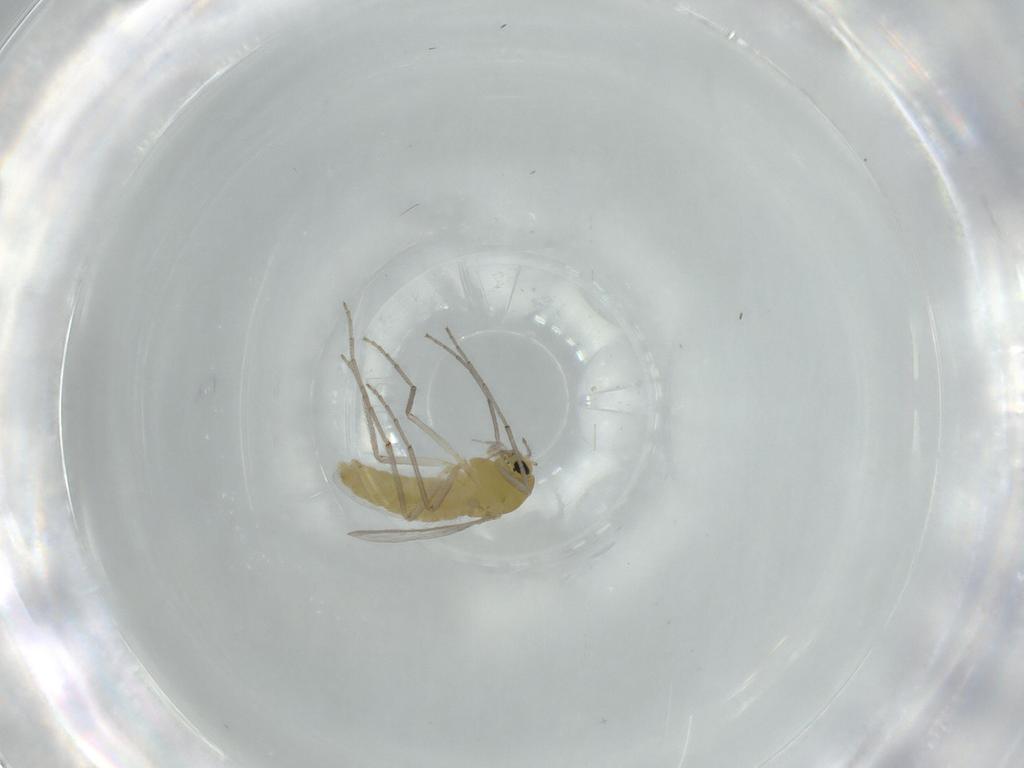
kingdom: Animalia
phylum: Arthropoda
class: Insecta
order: Diptera
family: Chironomidae
